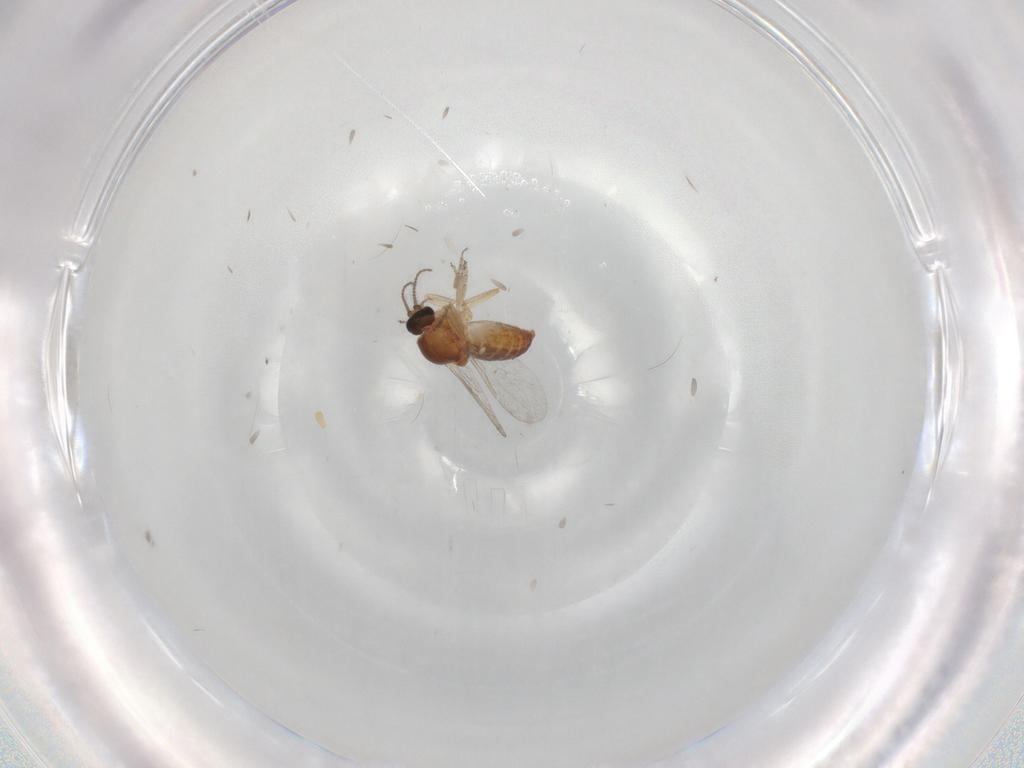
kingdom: Animalia
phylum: Arthropoda
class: Insecta
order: Diptera
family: Ceratopogonidae
